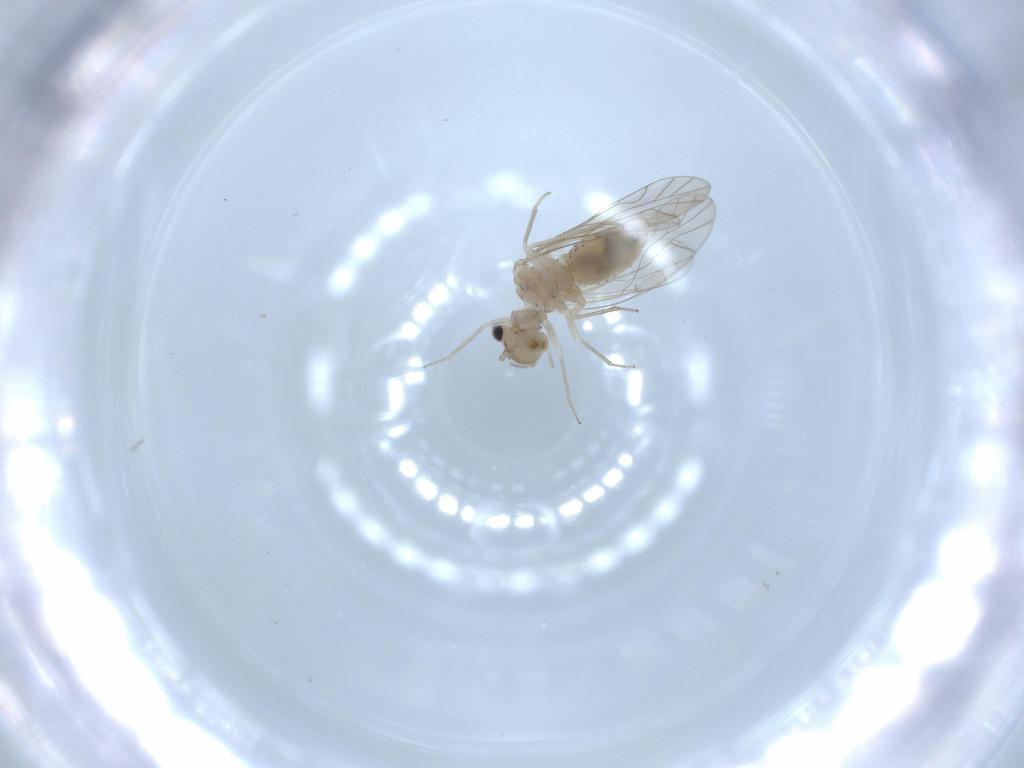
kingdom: Animalia
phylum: Arthropoda
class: Insecta
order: Psocodea
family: Lachesillidae
